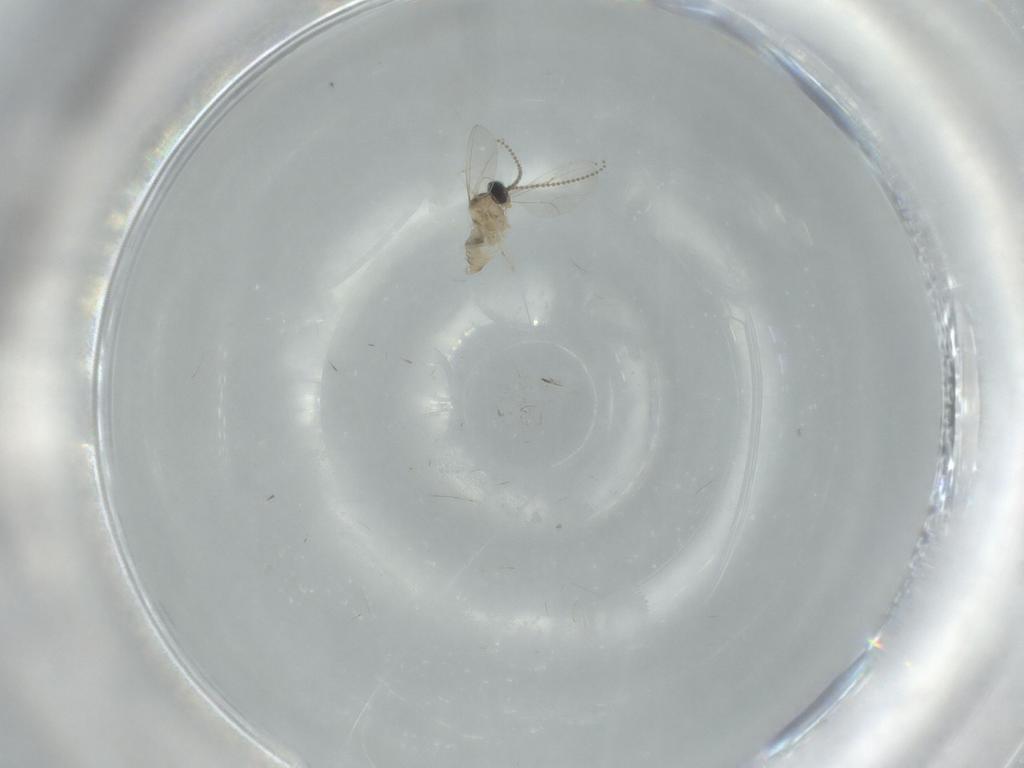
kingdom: Animalia
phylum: Arthropoda
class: Insecta
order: Diptera
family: Cecidomyiidae
